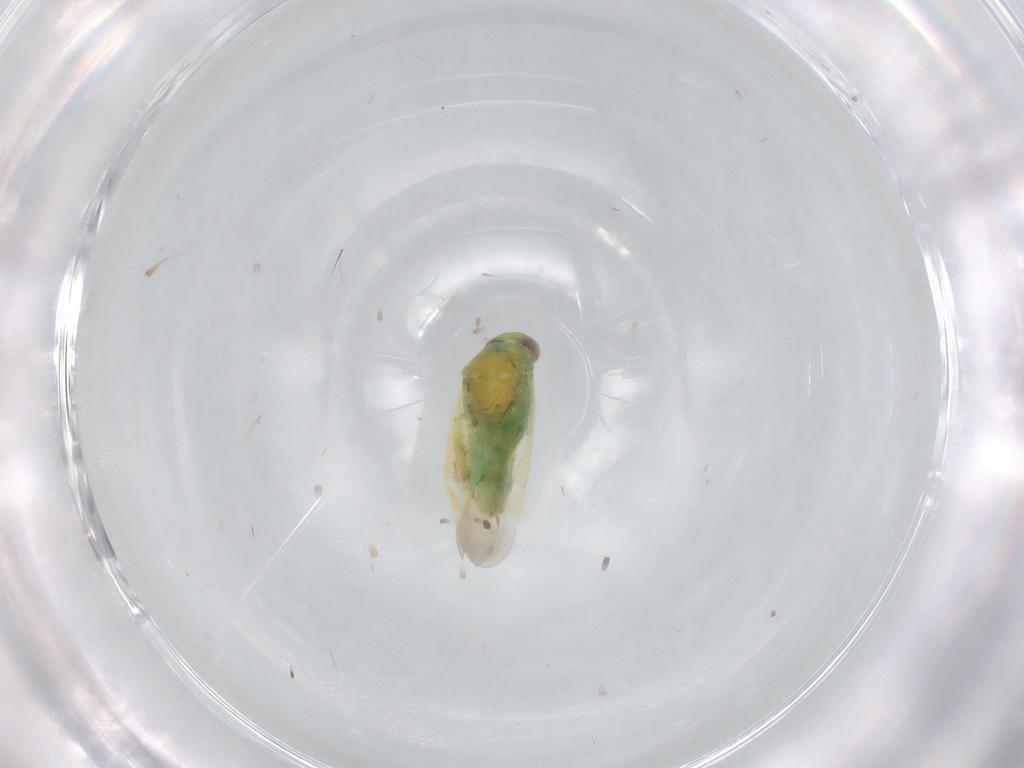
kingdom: Animalia
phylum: Arthropoda
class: Insecta
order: Hemiptera
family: Miridae
